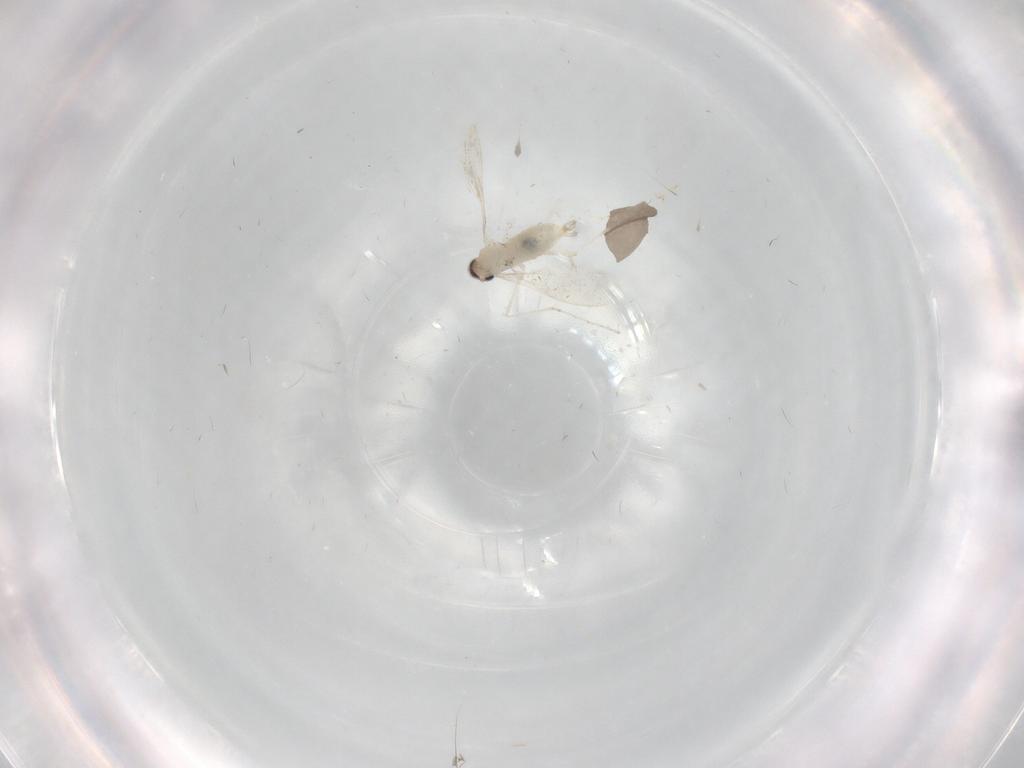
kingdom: Animalia
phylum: Arthropoda
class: Insecta
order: Diptera
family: Cecidomyiidae
